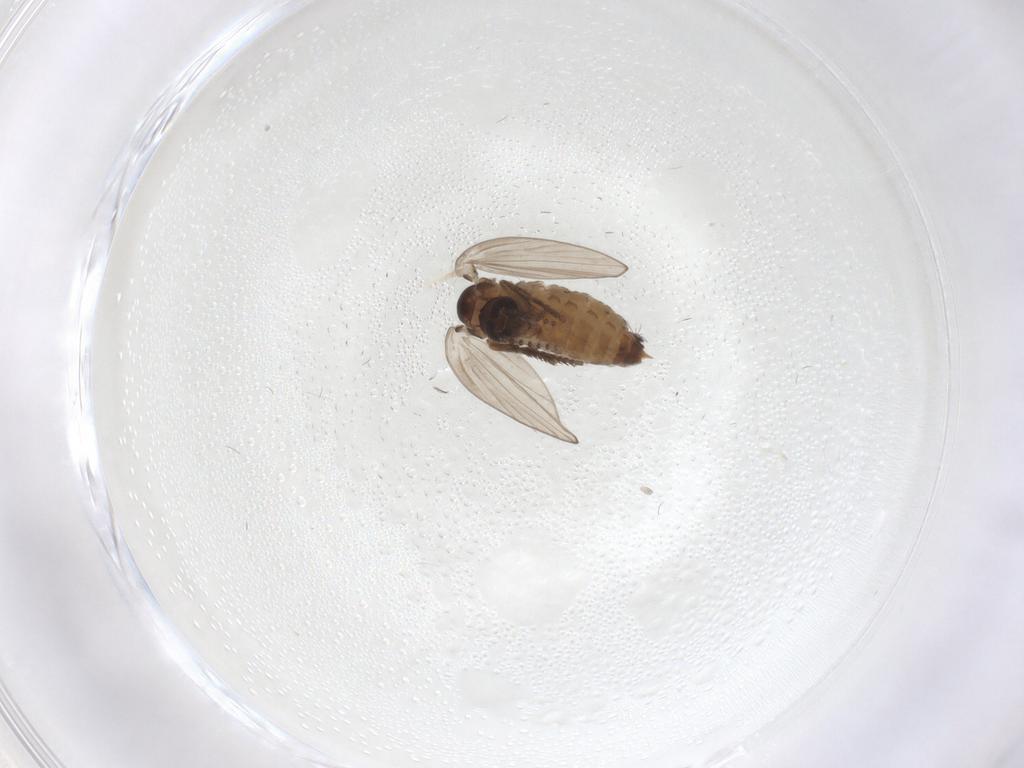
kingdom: Animalia
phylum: Arthropoda
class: Insecta
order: Diptera
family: Psychodidae
